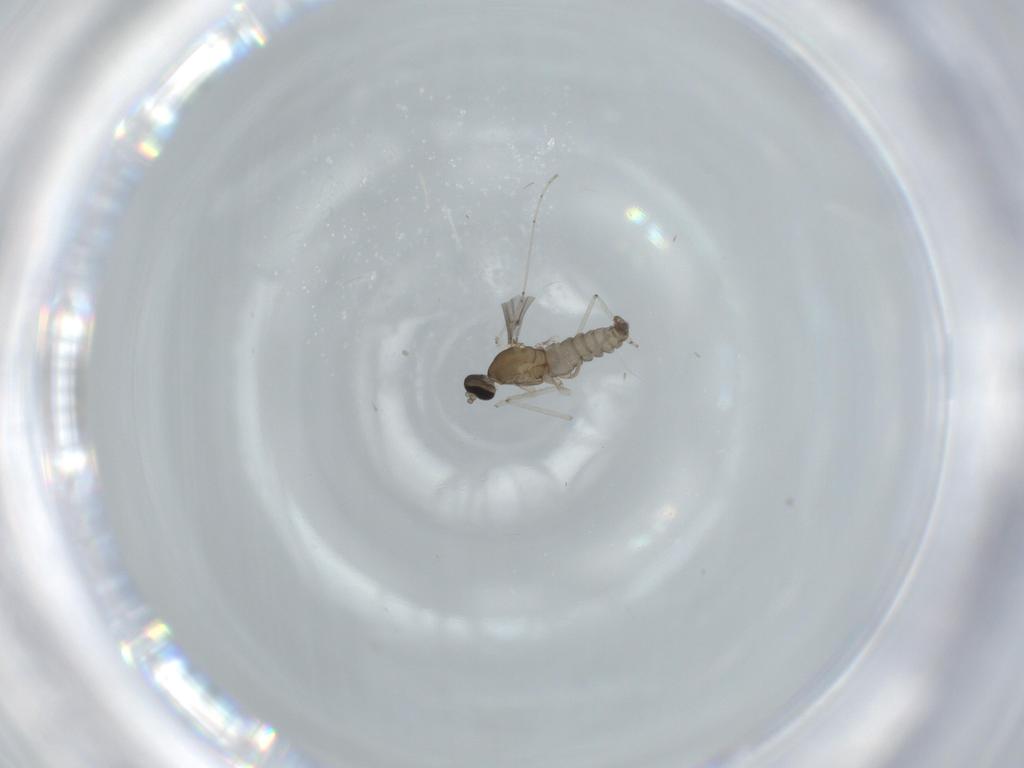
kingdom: Animalia
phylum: Arthropoda
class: Insecta
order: Diptera
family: Cecidomyiidae
